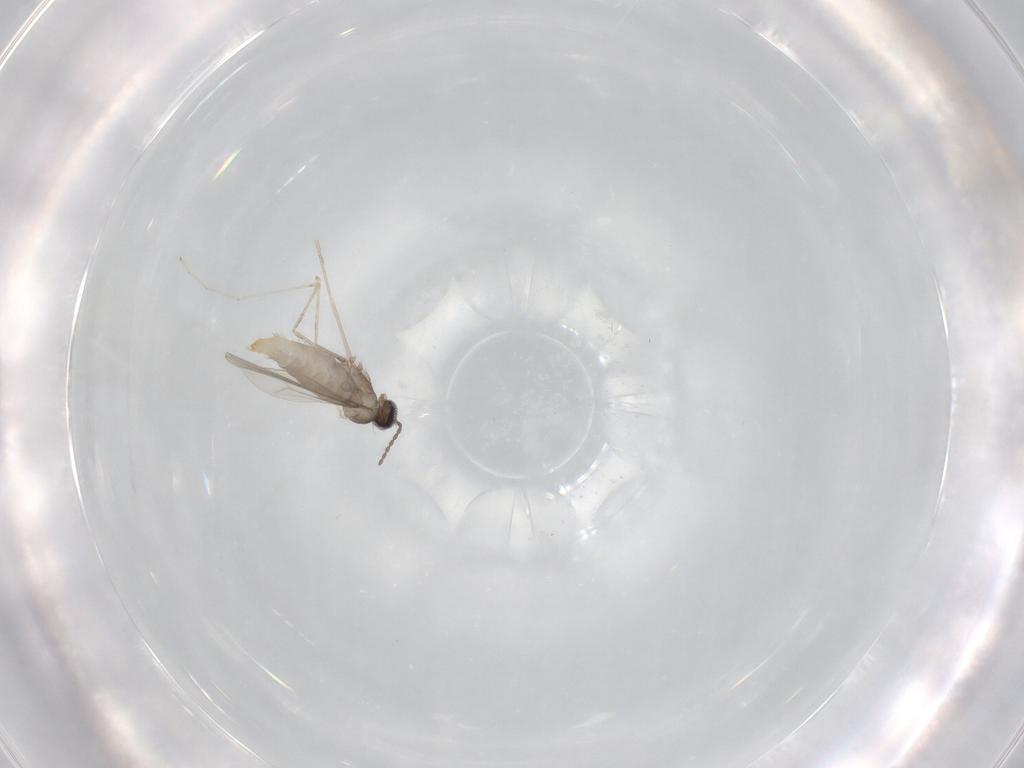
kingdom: Animalia
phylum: Arthropoda
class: Insecta
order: Diptera
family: Cecidomyiidae
